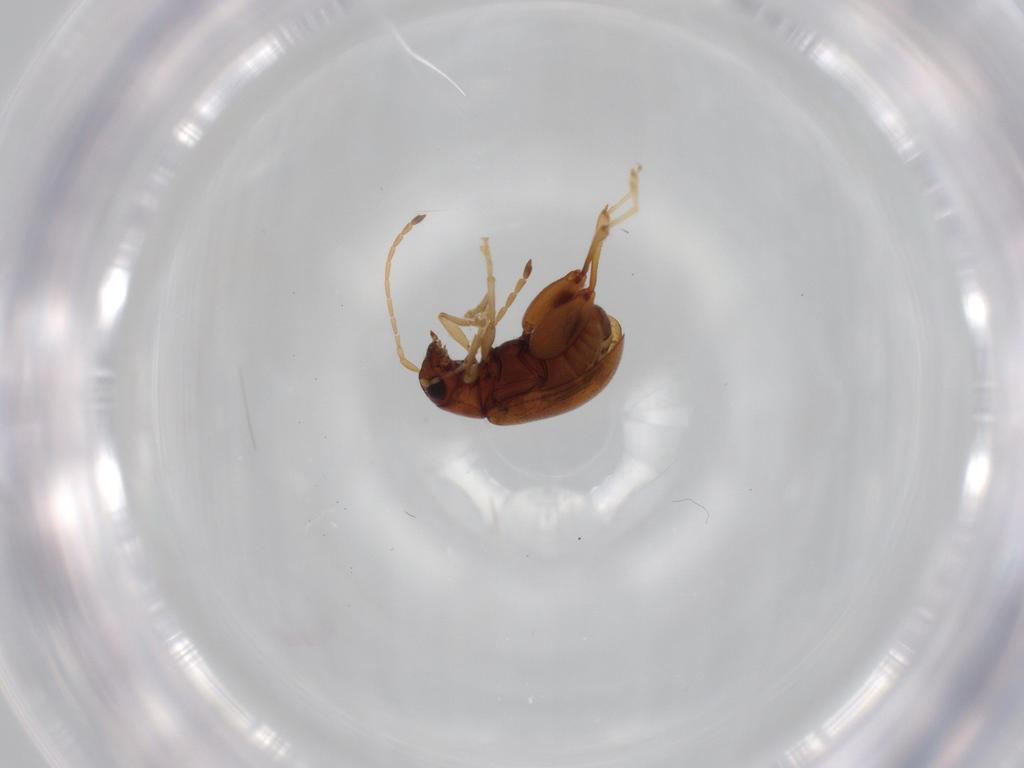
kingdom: Animalia
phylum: Arthropoda
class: Insecta
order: Coleoptera
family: Chrysomelidae
